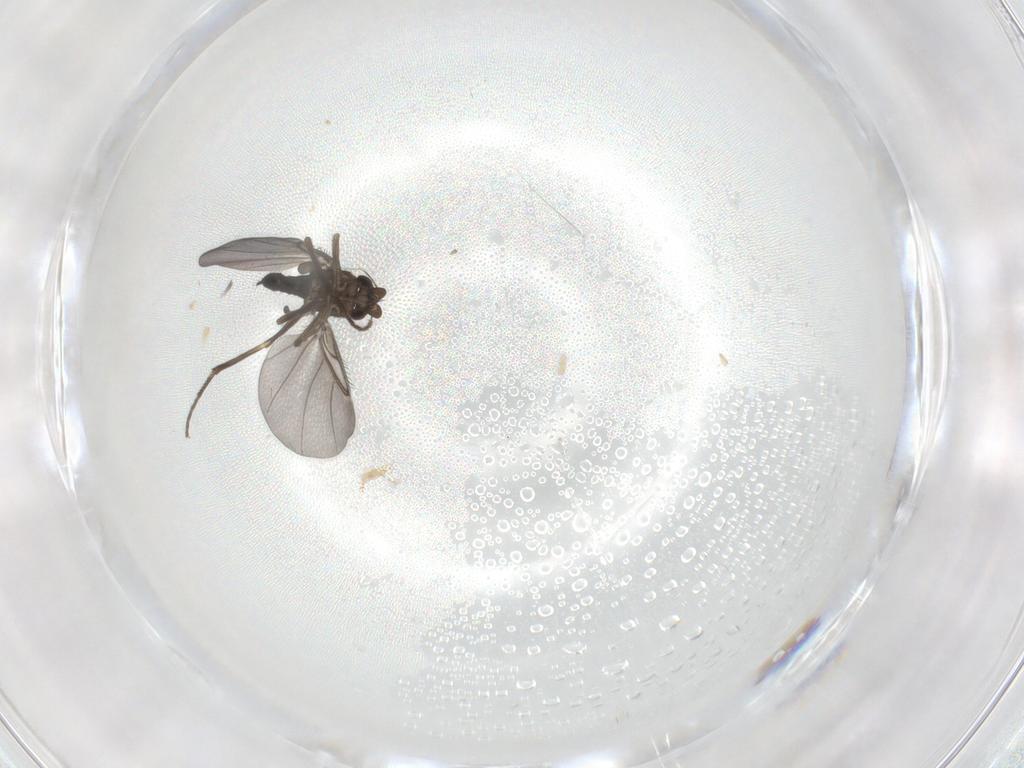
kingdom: Animalia
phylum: Arthropoda
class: Insecta
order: Diptera
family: Phoridae
